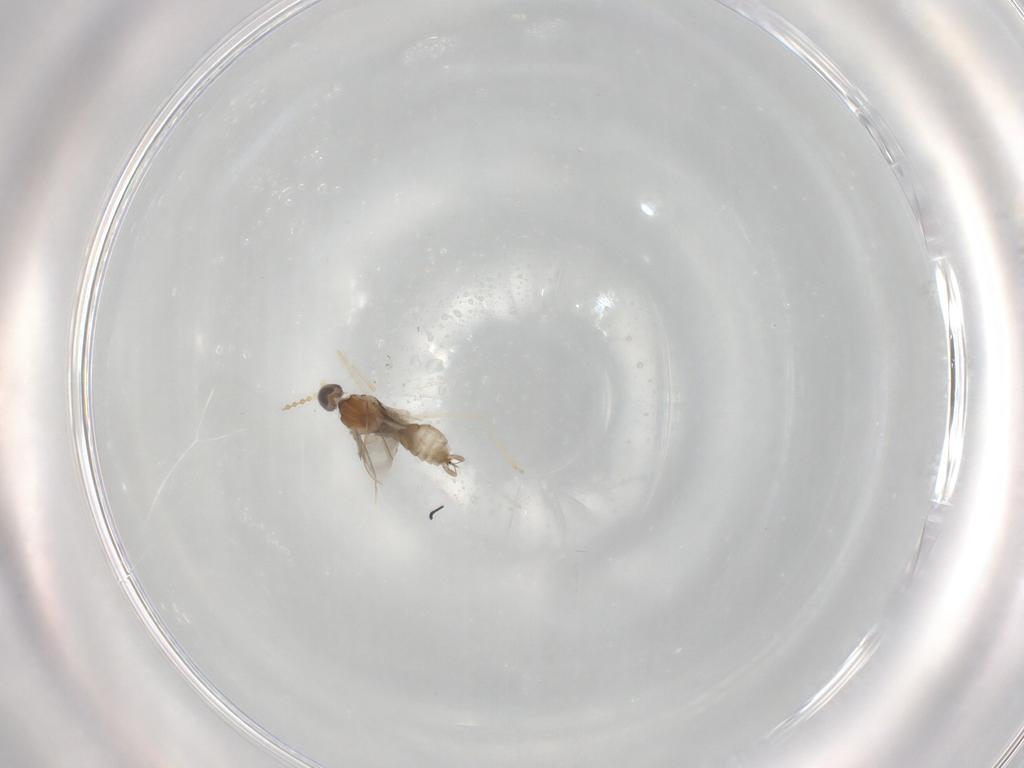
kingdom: Animalia
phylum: Arthropoda
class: Insecta
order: Diptera
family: Cecidomyiidae
